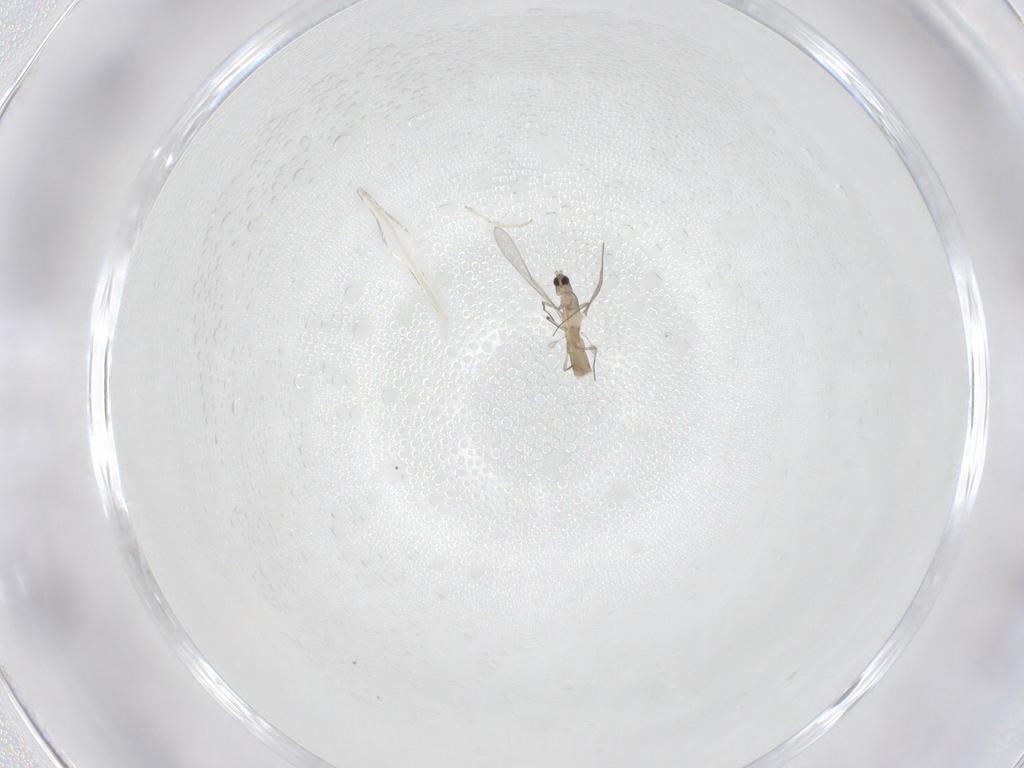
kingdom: Animalia
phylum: Arthropoda
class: Insecta
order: Diptera
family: Cecidomyiidae
